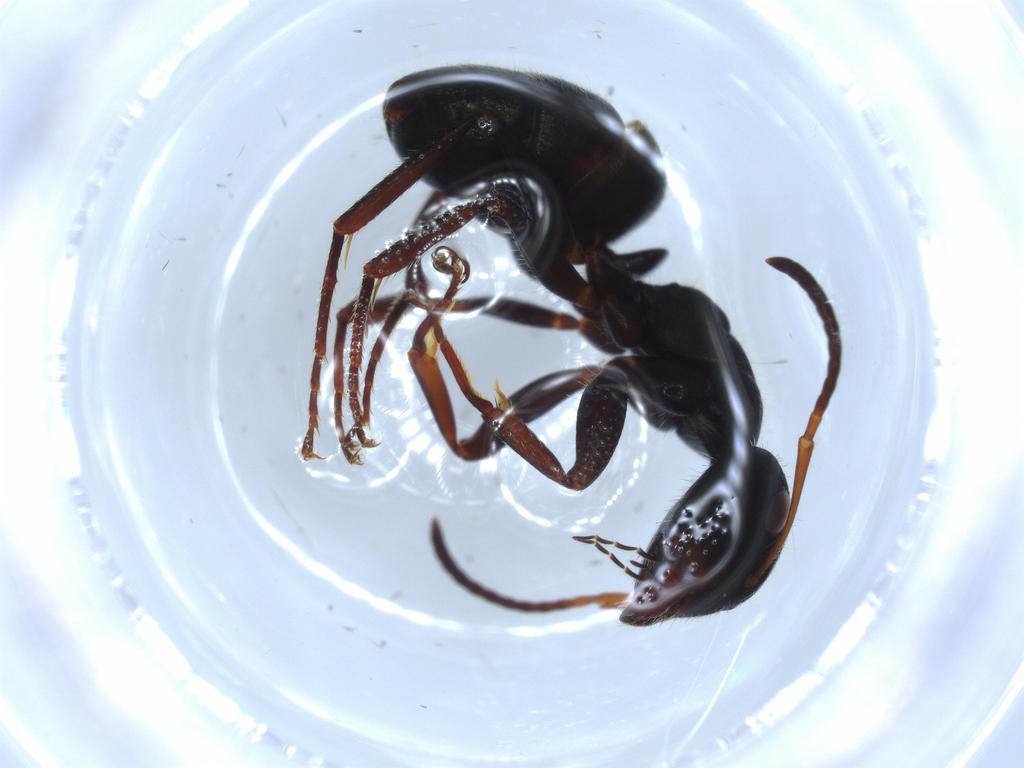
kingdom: Animalia
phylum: Arthropoda
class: Insecta
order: Hymenoptera
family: Formicidae
